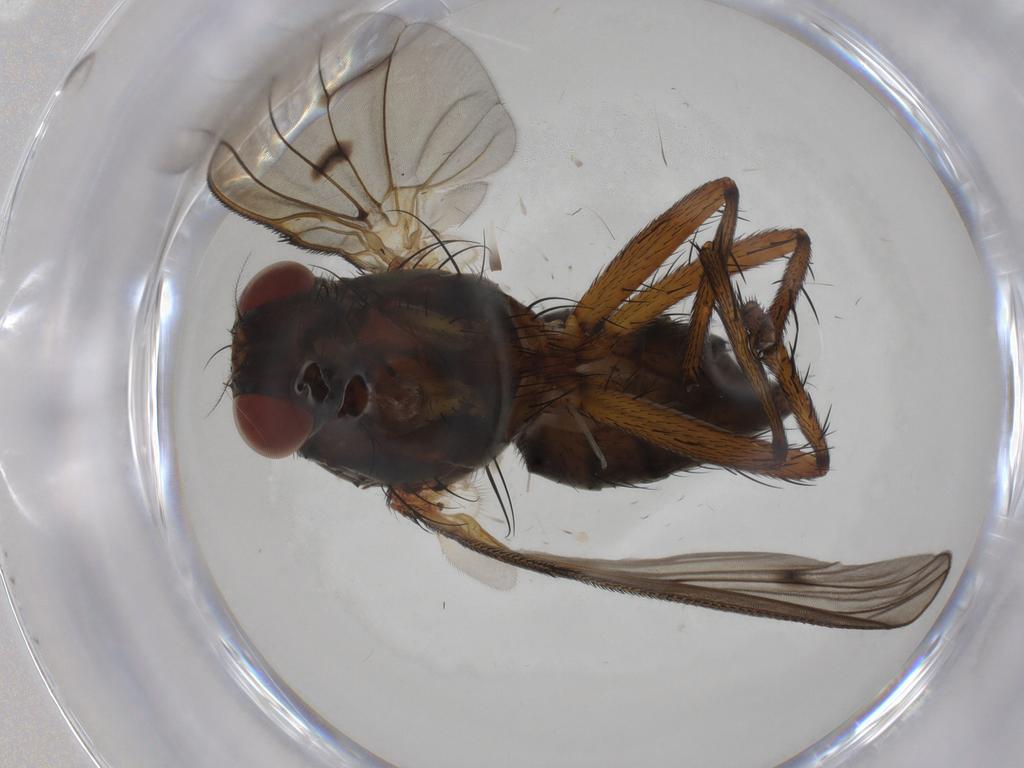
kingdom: Animalia
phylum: Arthropoda
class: Insecta
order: Diptera
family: Anthomyiidae
